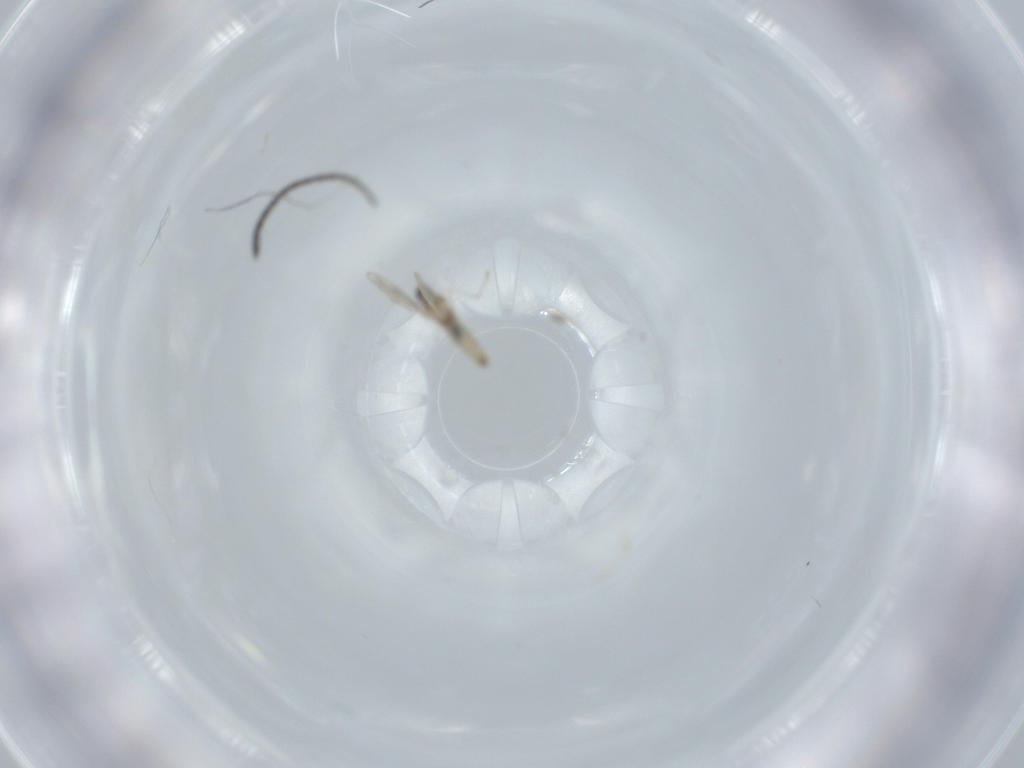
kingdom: Animalia
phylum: Arthropoda
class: Insecta
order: Diptera
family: Cecidomyiidae
